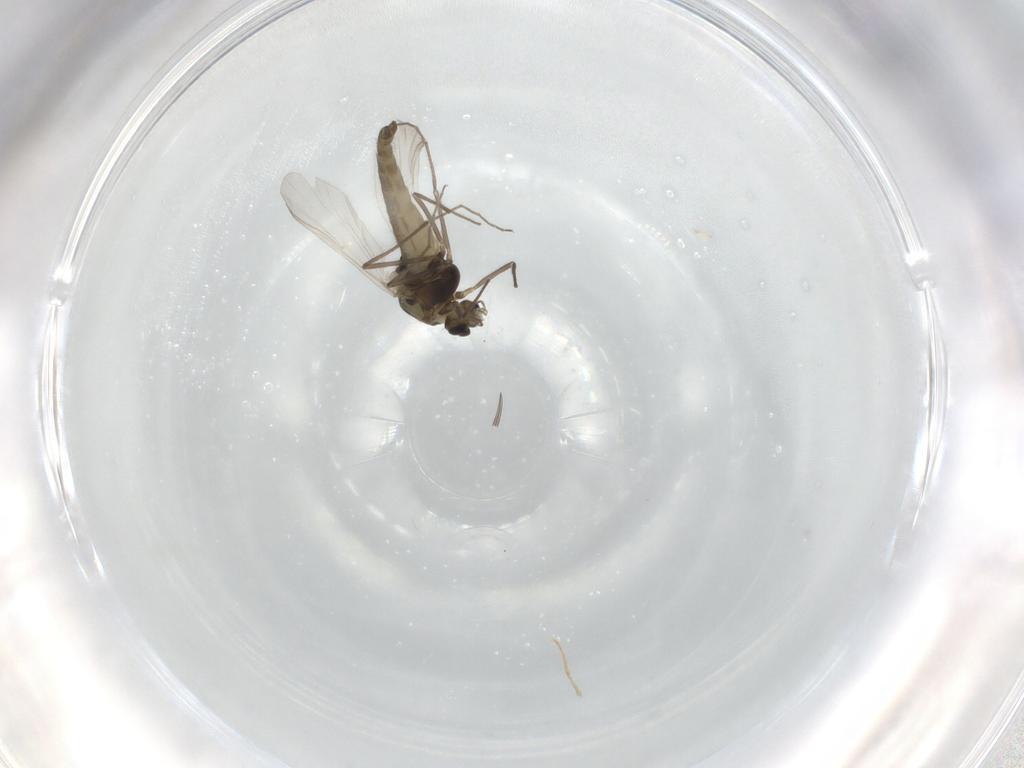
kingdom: Animalia
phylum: Arthropoda
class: Insecta
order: Diptera
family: Chironomidae
